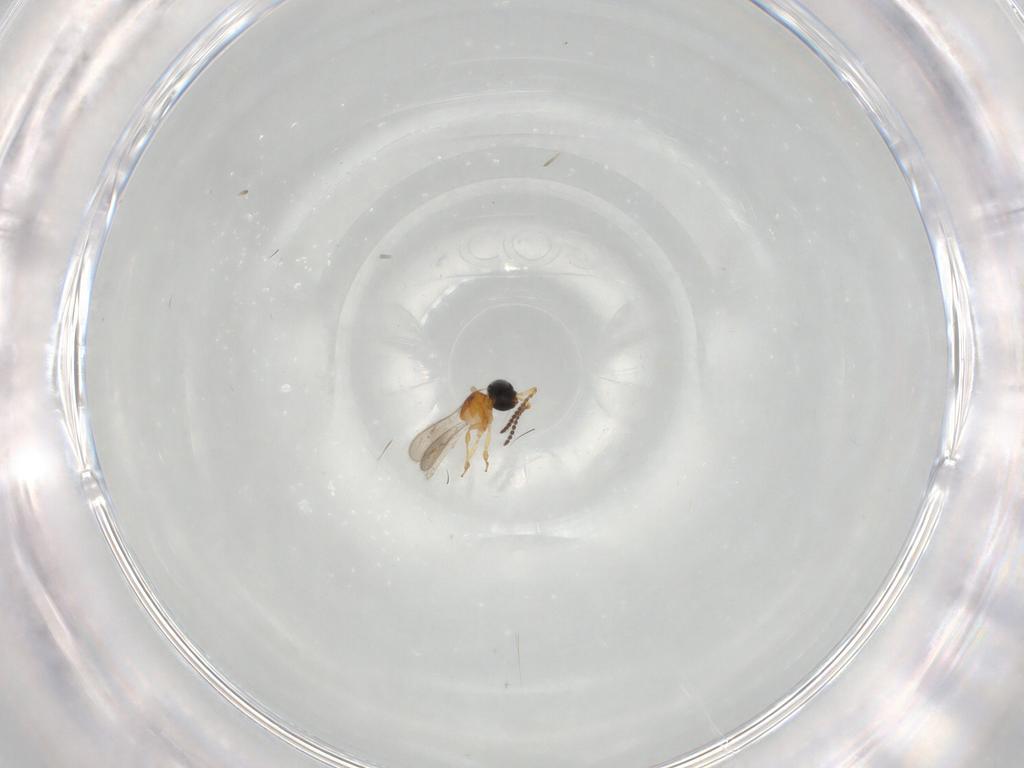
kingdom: Animalia
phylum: Arthropoda
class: Insecta
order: Hymenoptera
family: Scelionidae
